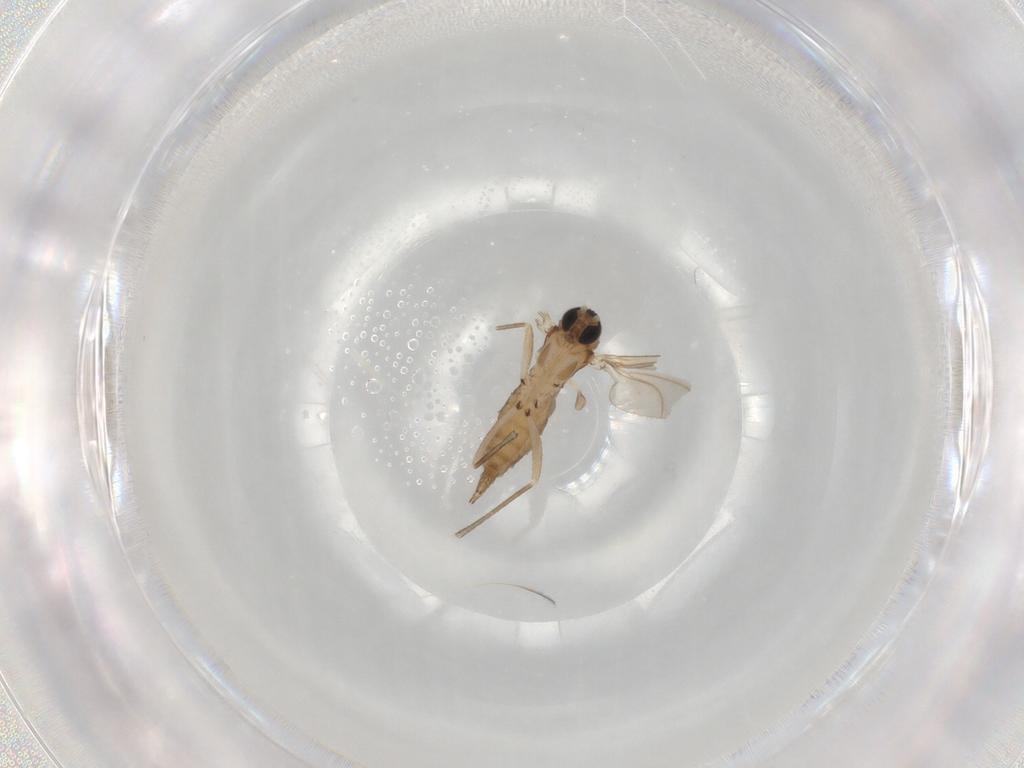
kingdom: Animalia
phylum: Arthropoda
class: Insecta
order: Diptera
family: Sciaridae
